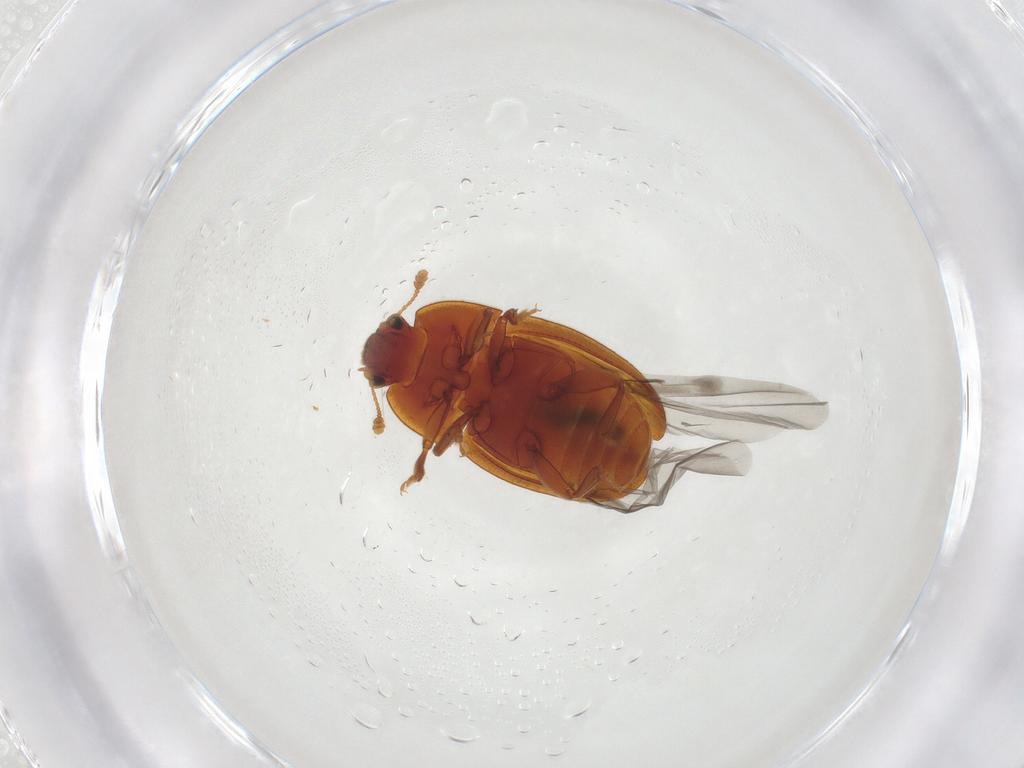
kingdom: Animalia
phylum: Arthropoda
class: Insecta
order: Coleoptera
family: Nitidulidae
